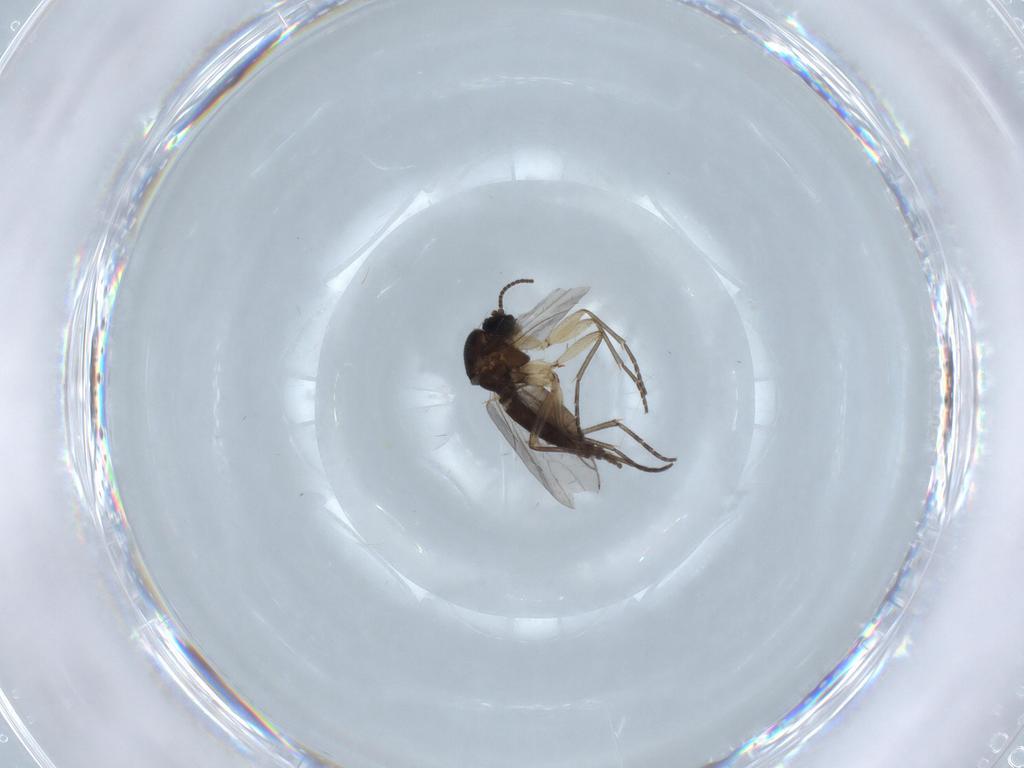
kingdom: Animalia
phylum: Arthropoda
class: Insecta
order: Diptera
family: Sciaridae
